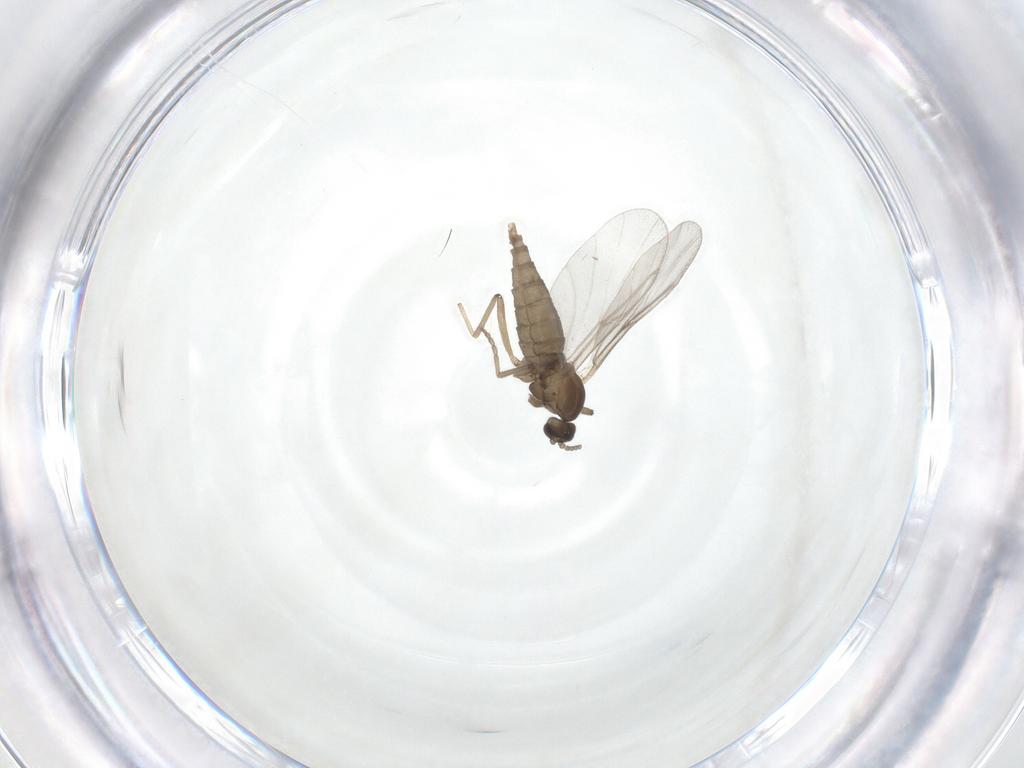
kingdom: Animalia
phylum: Arthropoda
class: Insecta
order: Diptera
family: Cecidomyiidae
